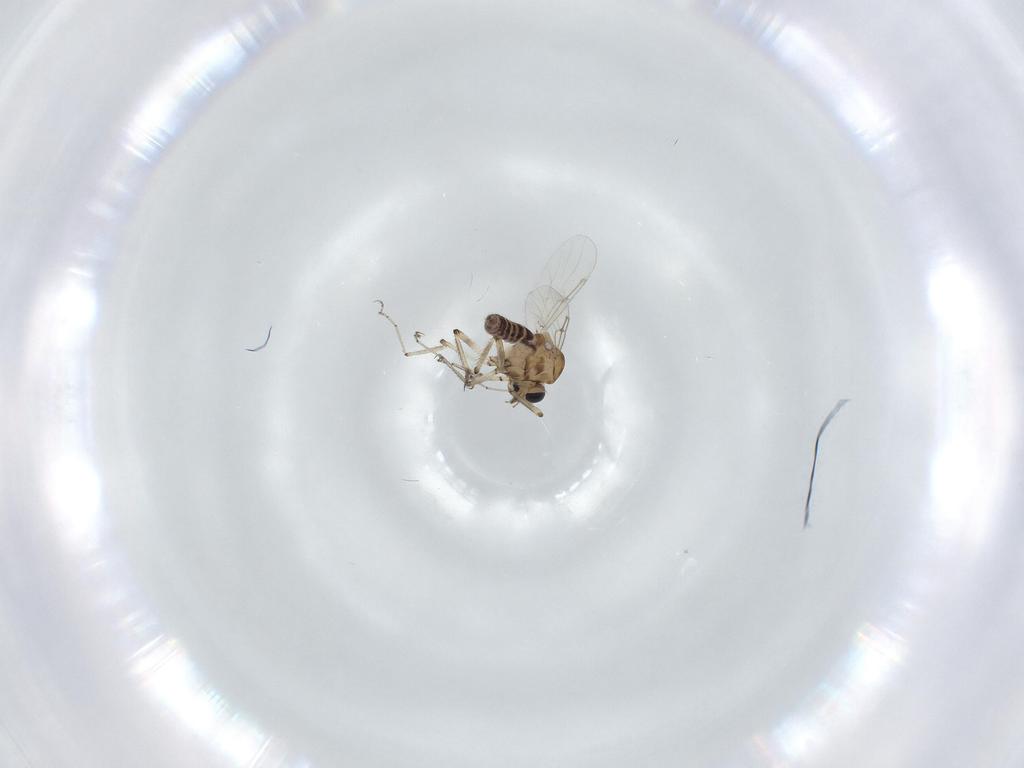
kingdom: Animalia
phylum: Arthropoda
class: Insecta
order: Diptera
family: Ceratopogonidae
